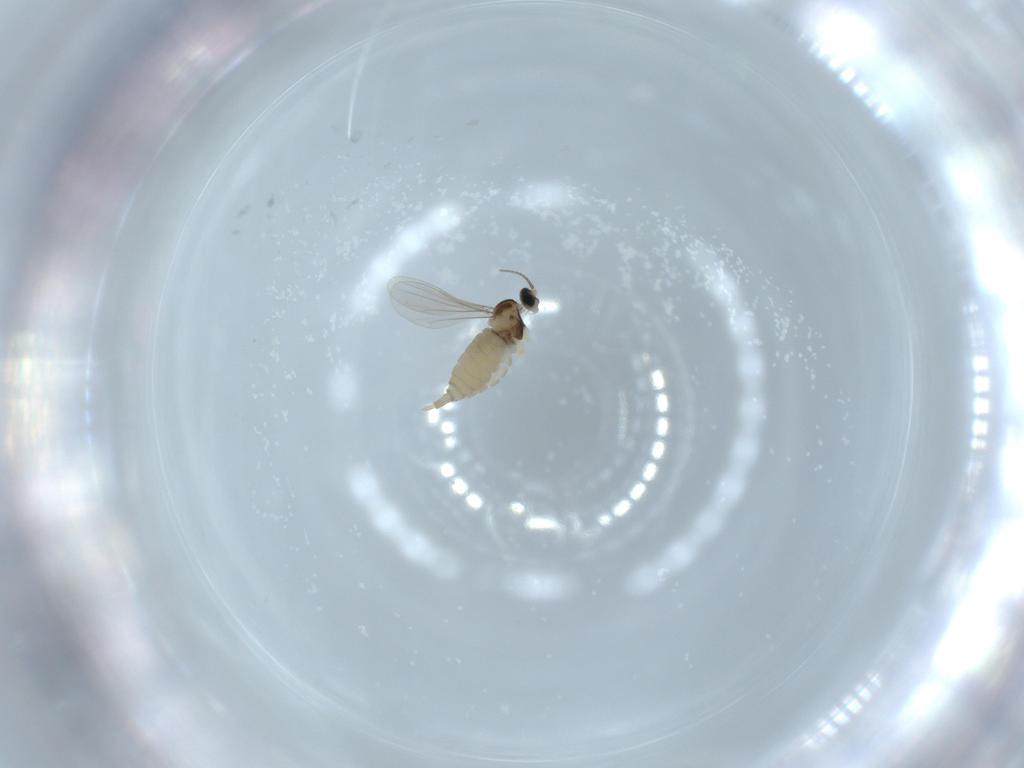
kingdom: Animalia
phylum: Arthropoda
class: Insecta
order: Diptera
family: Cecidomyiidae
